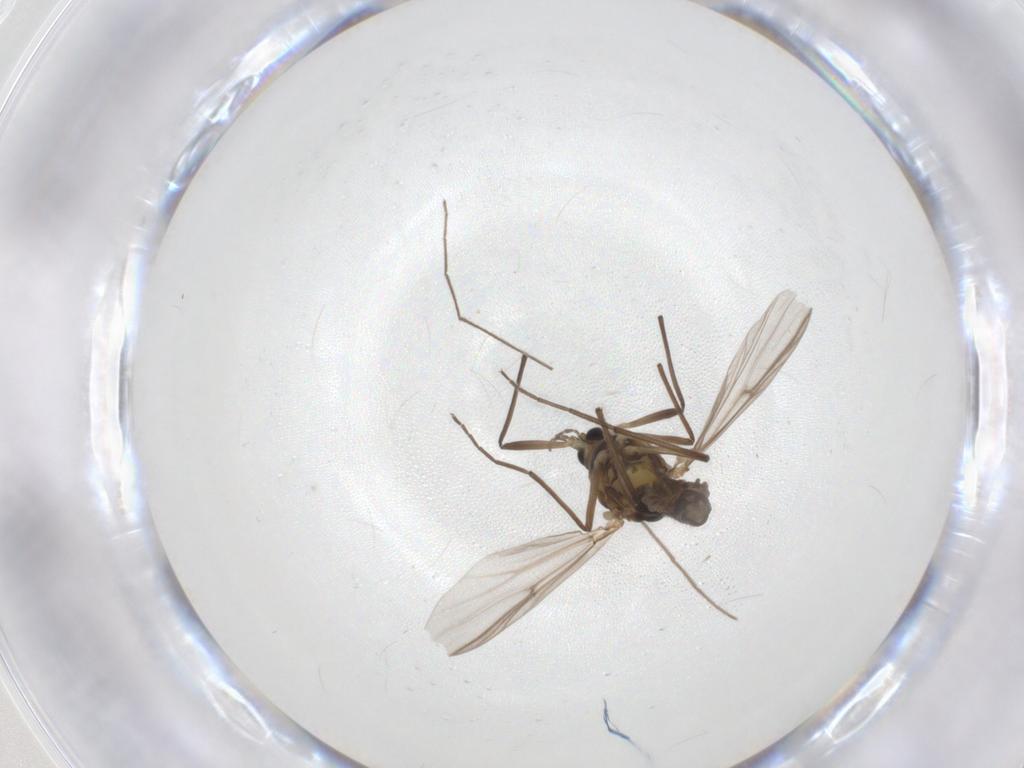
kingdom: Animalia
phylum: Arthropoda
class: Insecta
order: Diptera
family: Chironomidae
